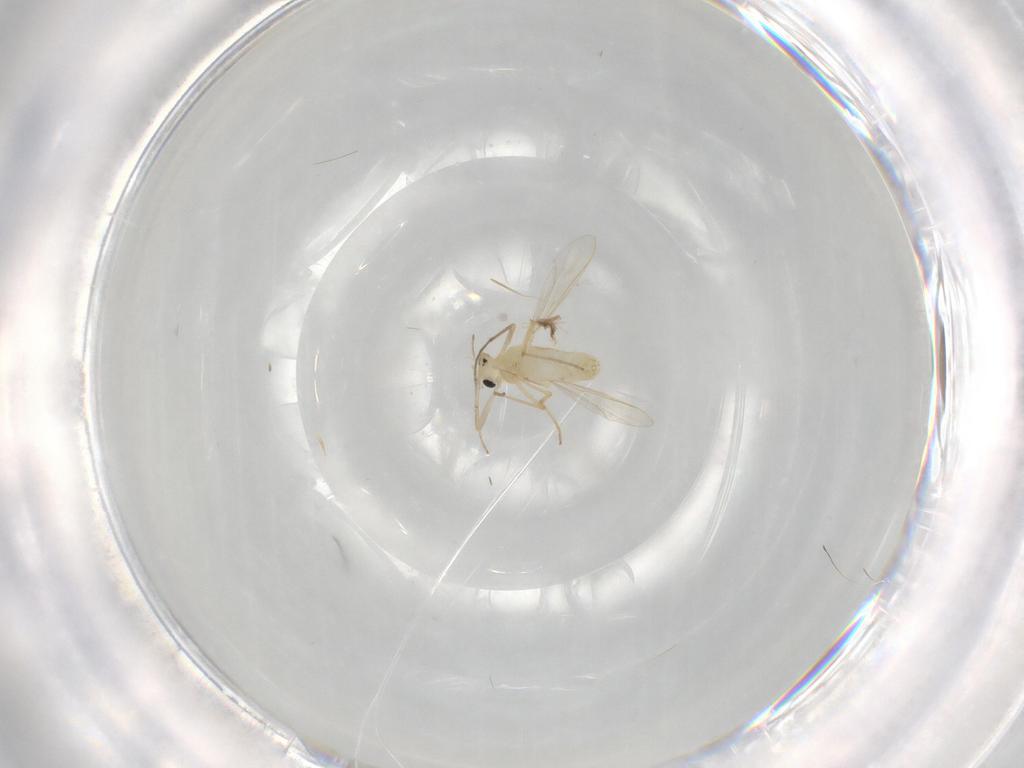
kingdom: Animalia
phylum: Arthropoda
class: Insecta
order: Diptera
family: Chironomidae
